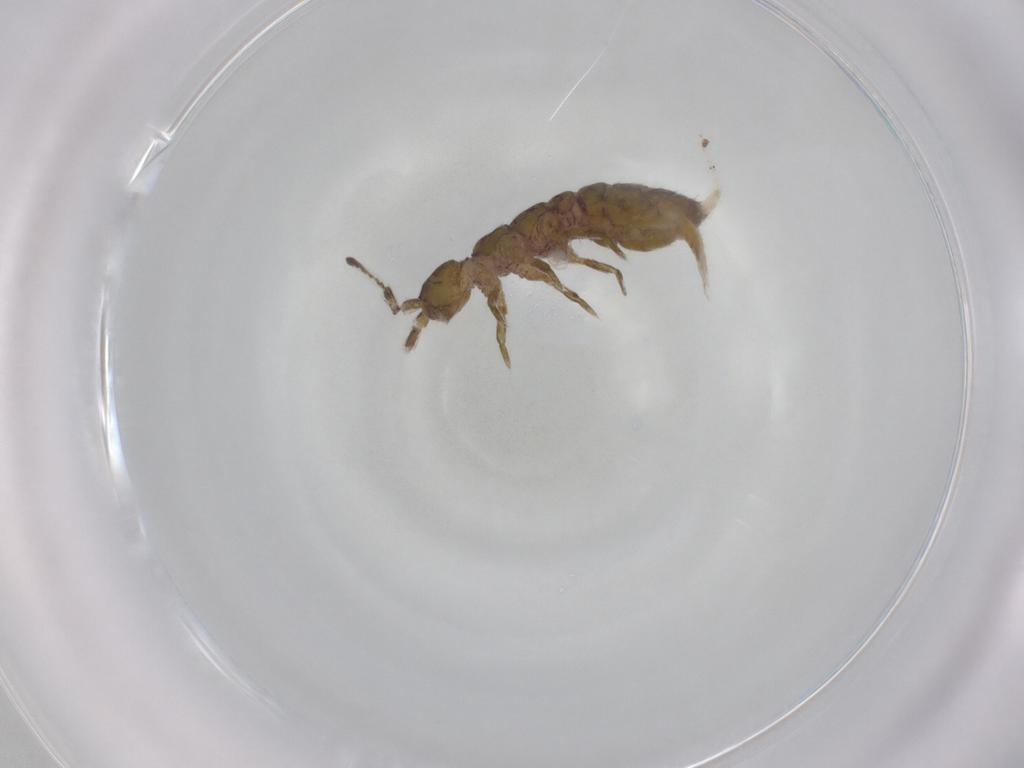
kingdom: Animalia
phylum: Arthropoda
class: Collembola
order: Entomobryomorpha
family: Isotomidae
